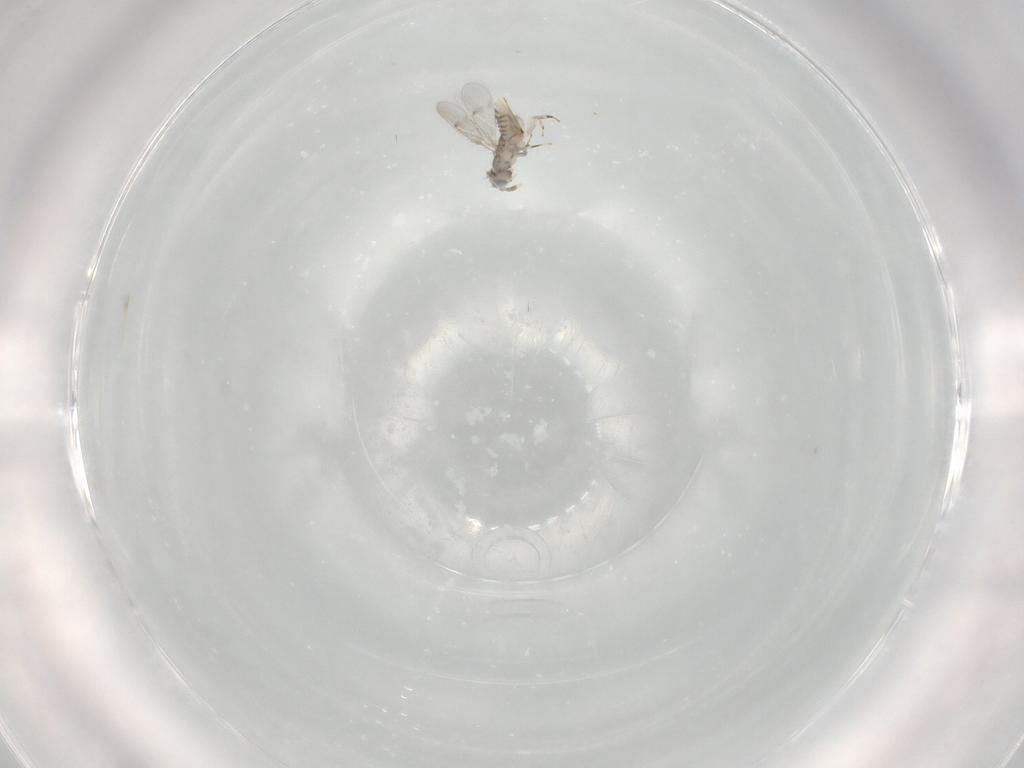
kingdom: Animalia
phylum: Arthropoda
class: Insecta
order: Hymenoptera
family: Aphelinidae
